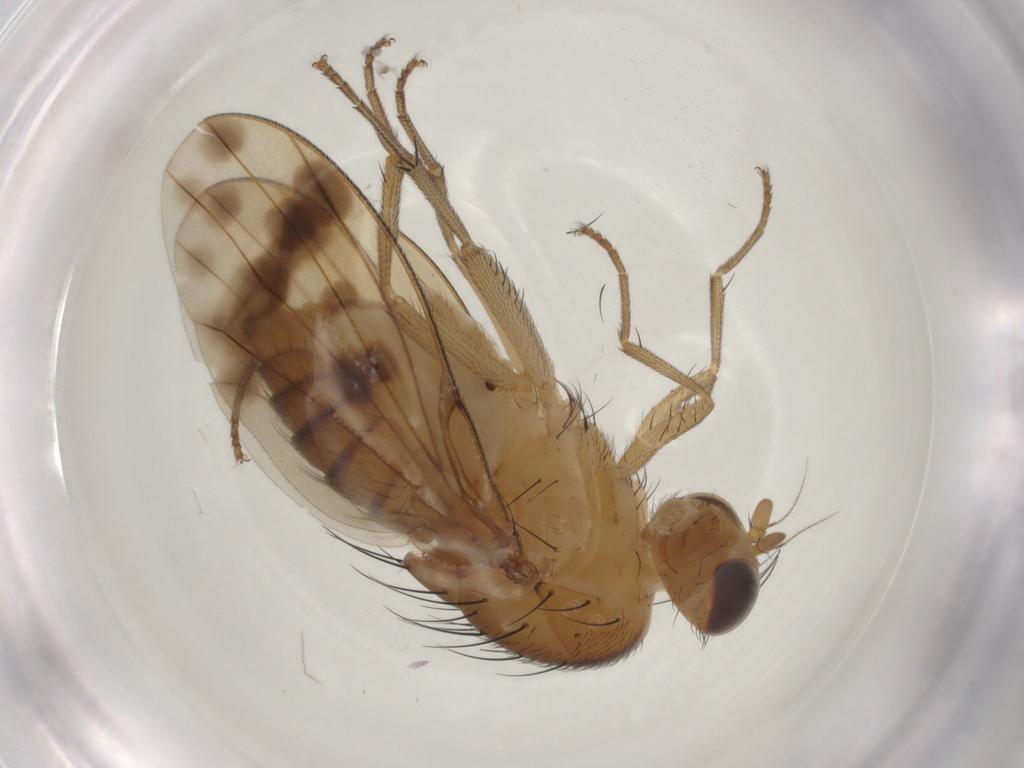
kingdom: Animalia
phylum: Arthropoda
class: Insecta
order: Diptera
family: Chironomidae
